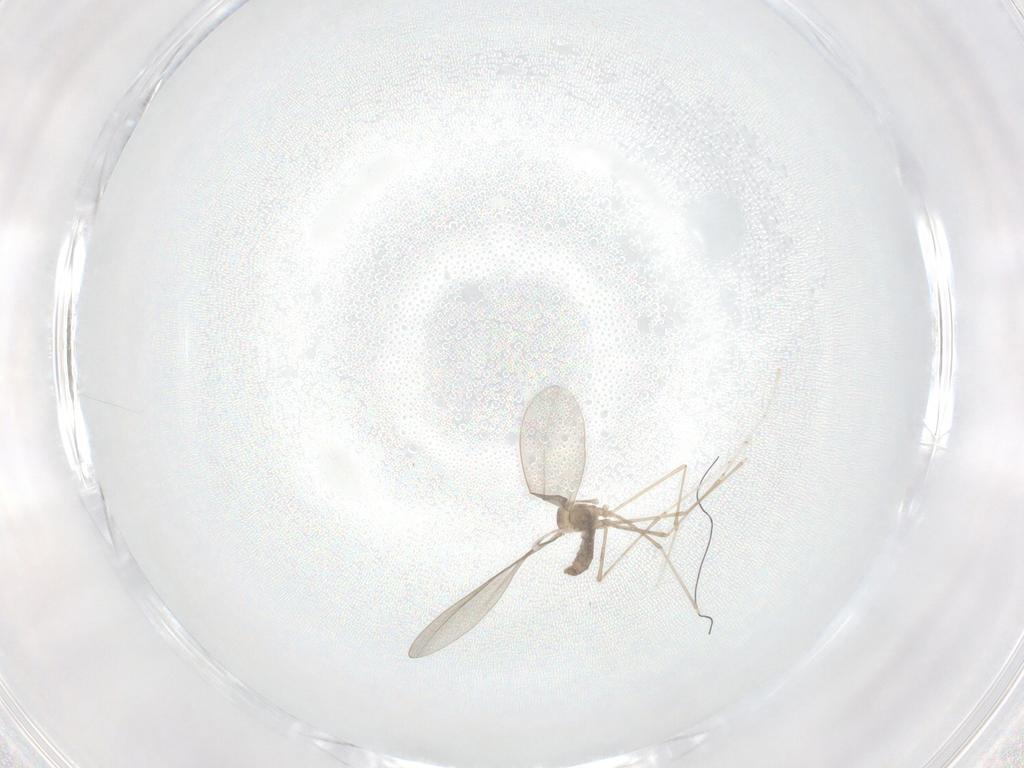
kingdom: Animalia
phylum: Arthropoda
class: Insecta
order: Diptera
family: Cecidomyiidae
